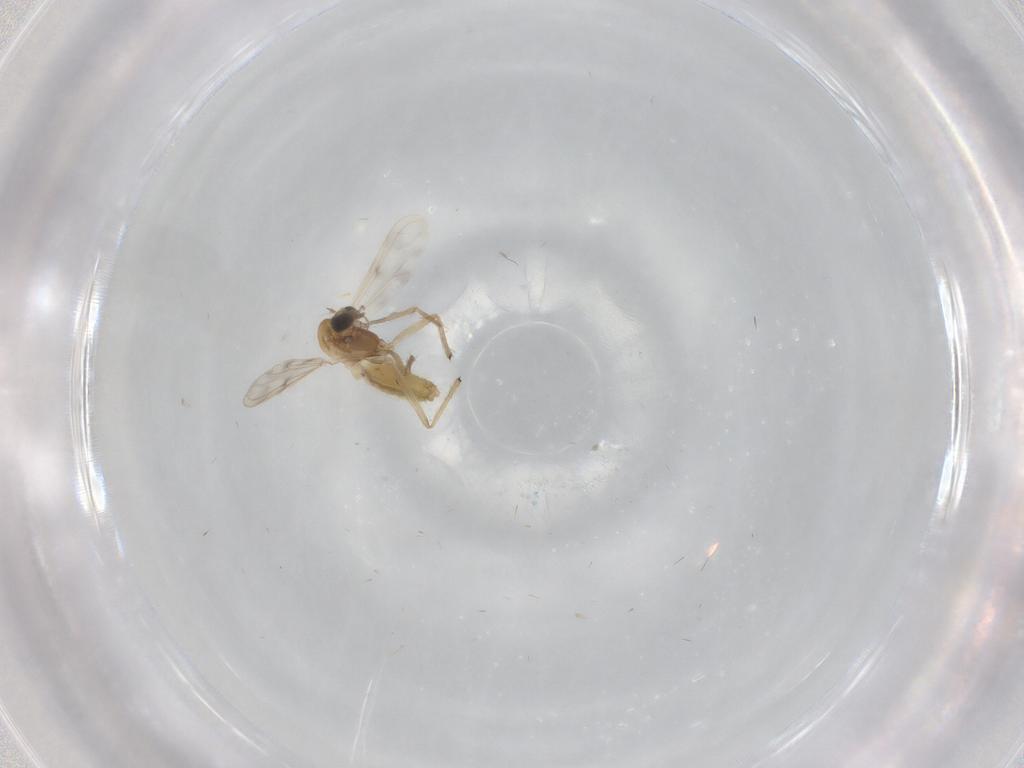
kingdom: Animalia
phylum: Arthropoda
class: Insecta
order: Diptera
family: Chironomidae
